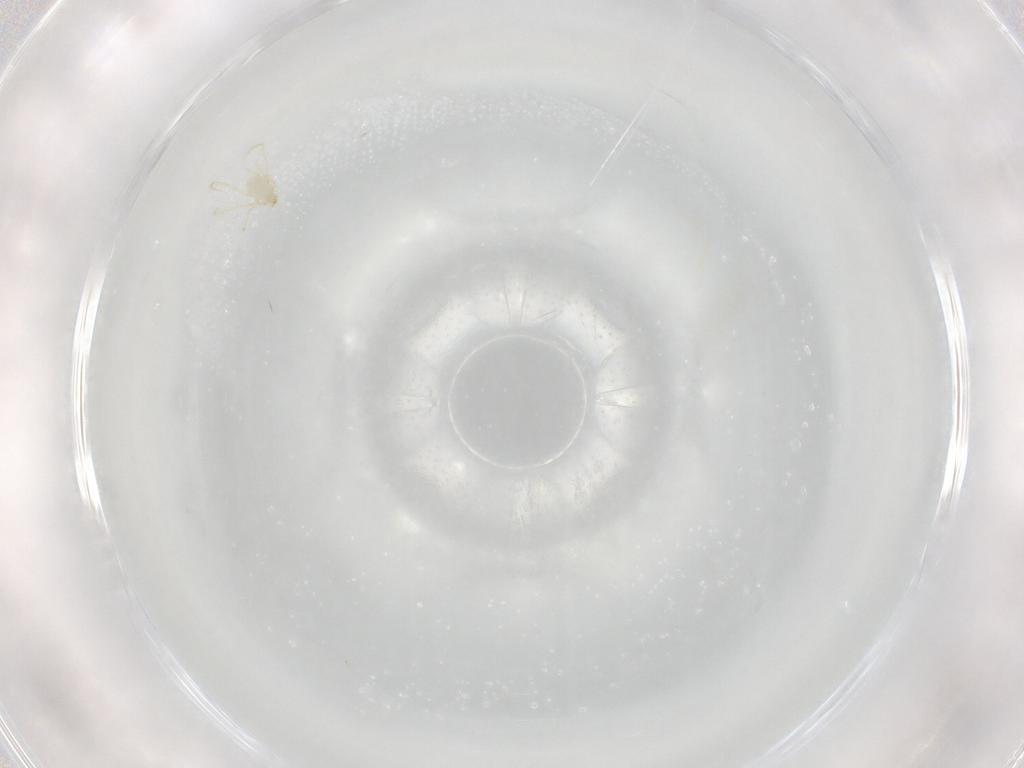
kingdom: Animalia
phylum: Arthropoda
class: Arachnida
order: Trombidiformes
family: Erythraeidae
